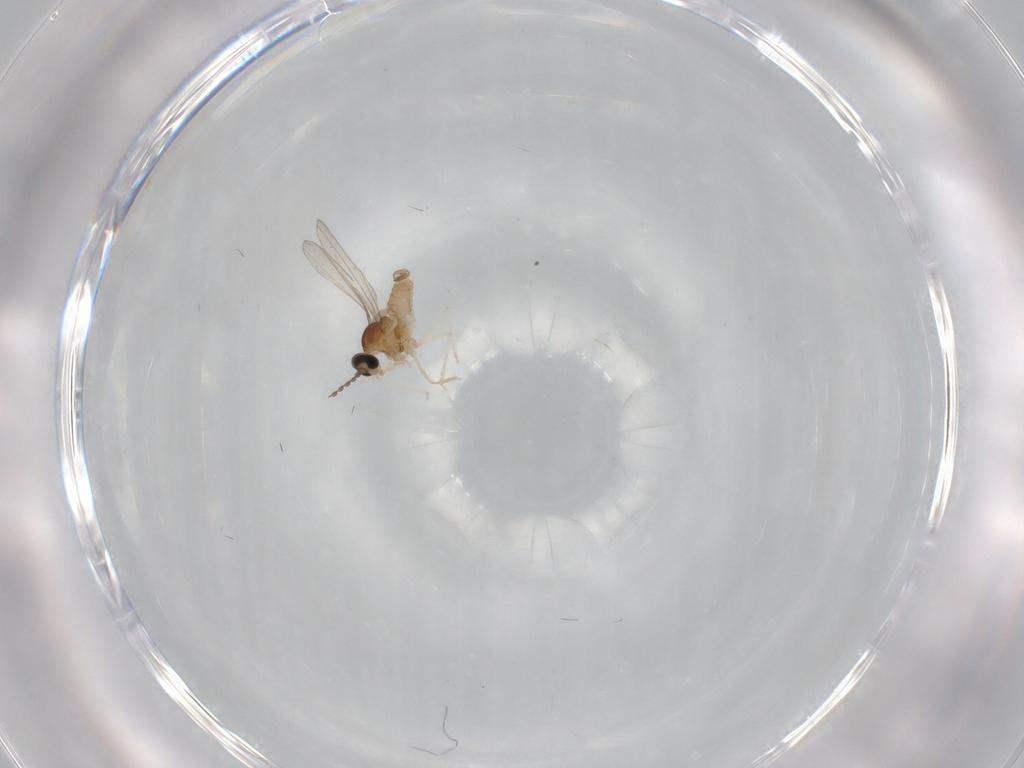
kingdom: Animalia
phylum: Arthropoda
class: Insecta
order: Diptera
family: Cecidomyiidae
